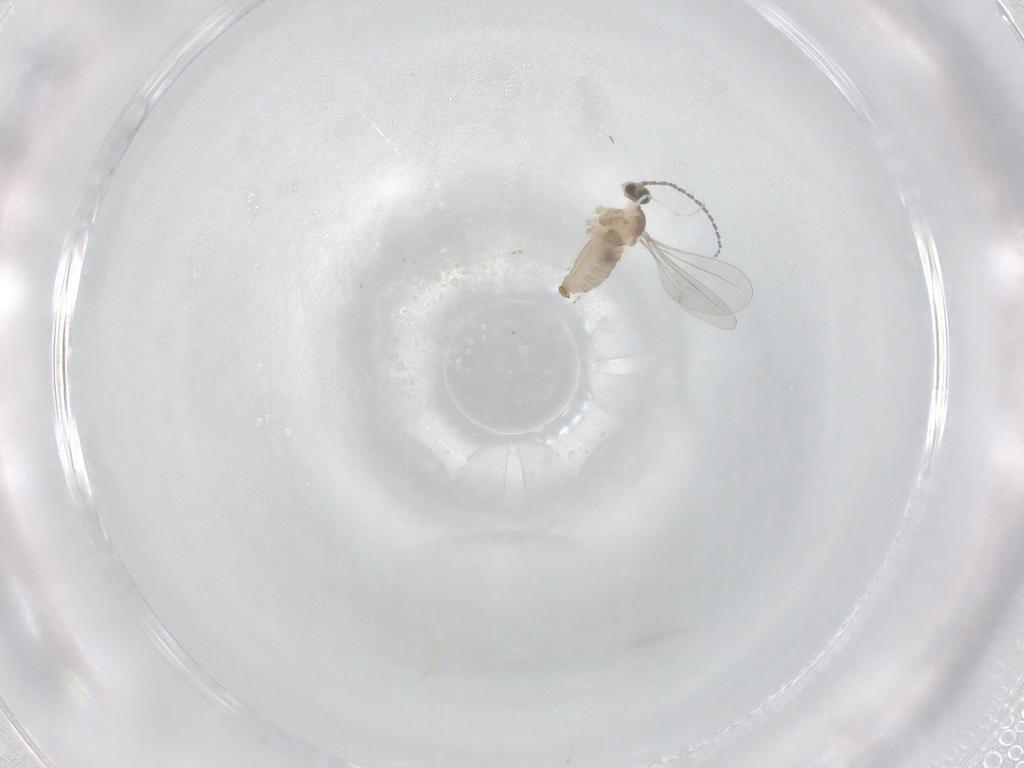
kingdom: Animalia
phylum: Arthropoda
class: Insecta
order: Diptera
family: Cecidomyiidae
